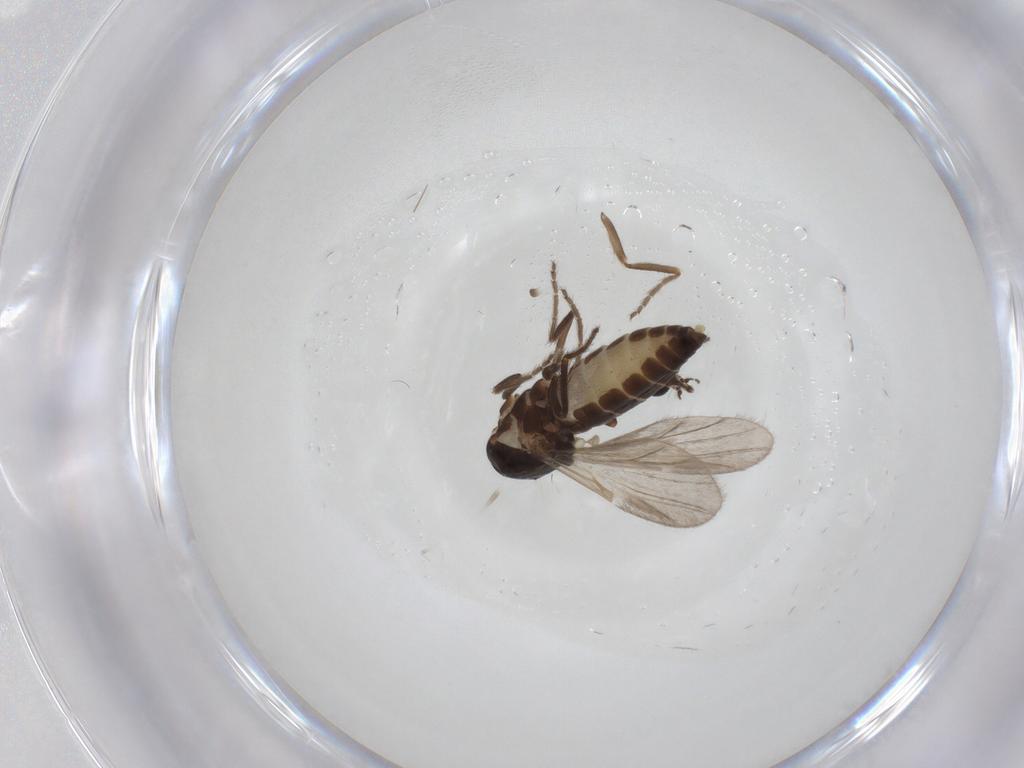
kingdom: Animalia
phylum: Arthropoda
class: Insecta
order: Diptera
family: Ceratopogonidae
